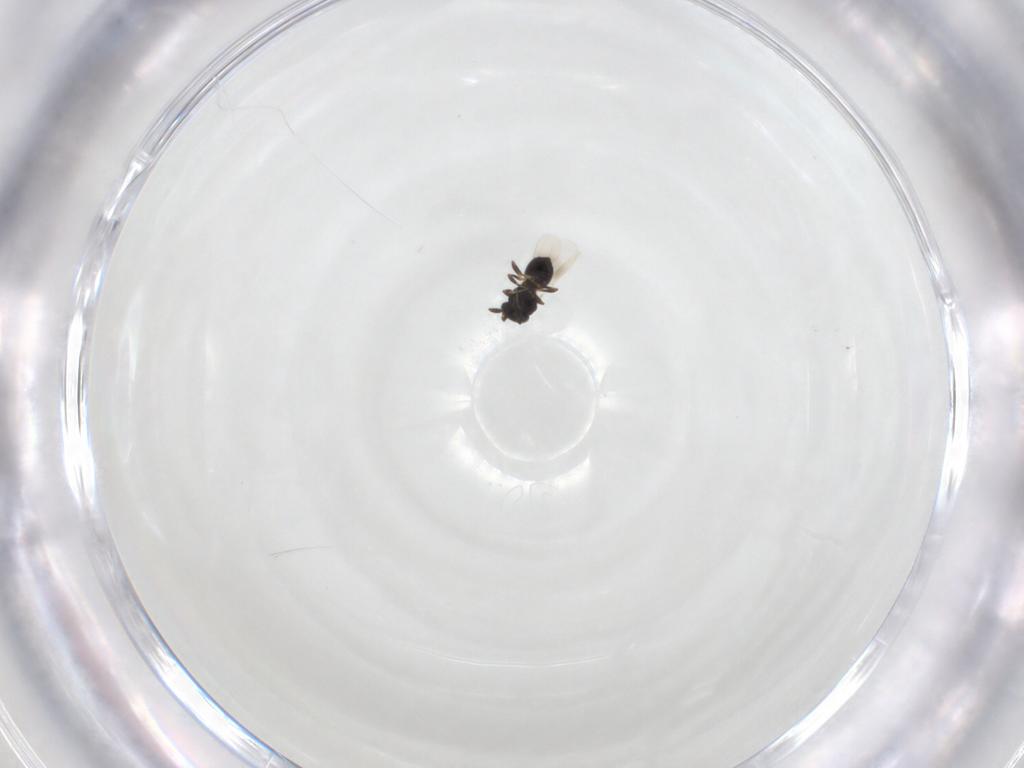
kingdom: Animalia
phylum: Arthropoda
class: Insecta
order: Hymenoptera
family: Platygastridae
